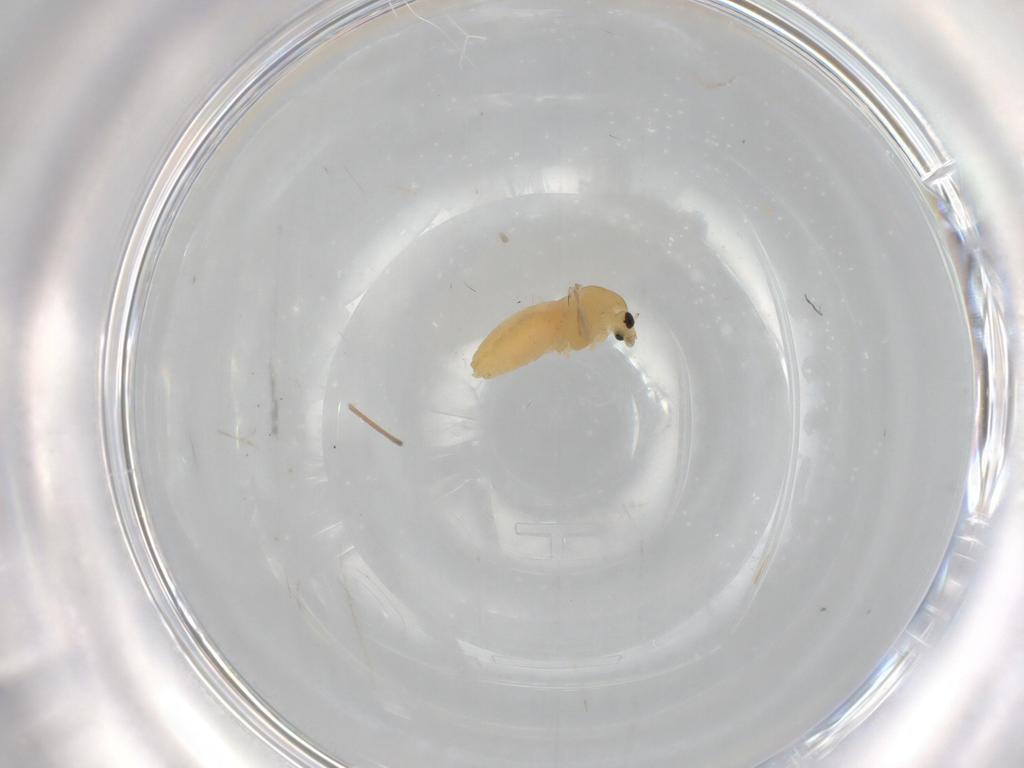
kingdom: Animalia
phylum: Arthropoda
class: Insecta
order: Diptera
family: Chironomidae
